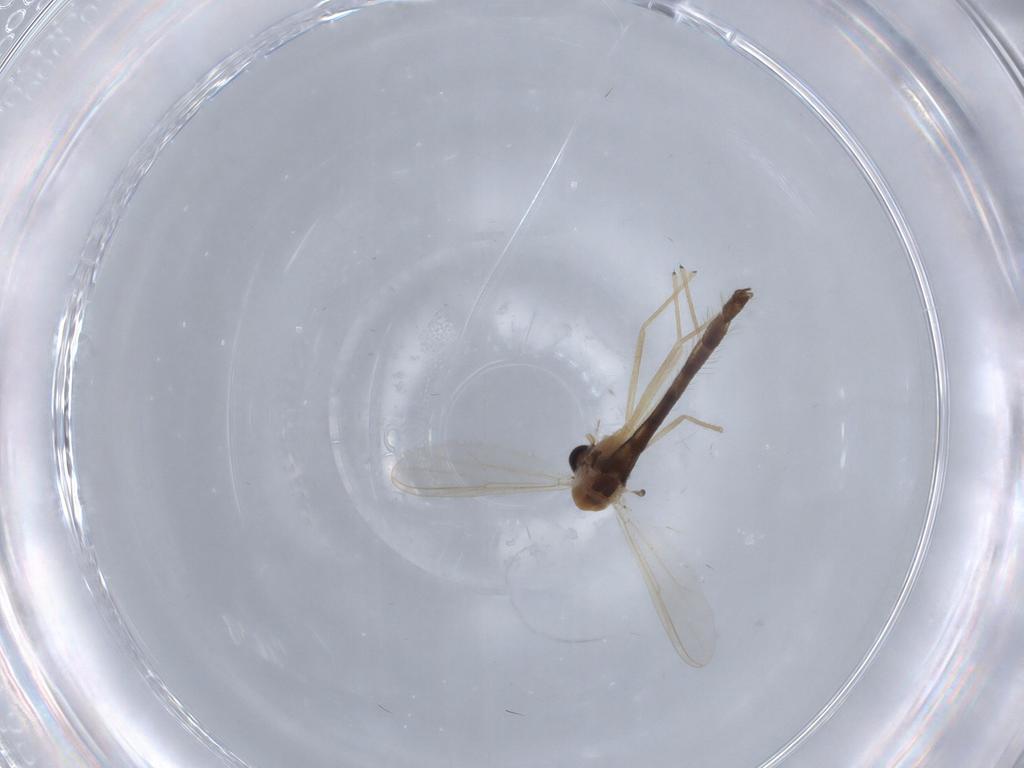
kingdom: Animalia
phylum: Arthropoda
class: Insecta
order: Diptera
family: Chironomidae
